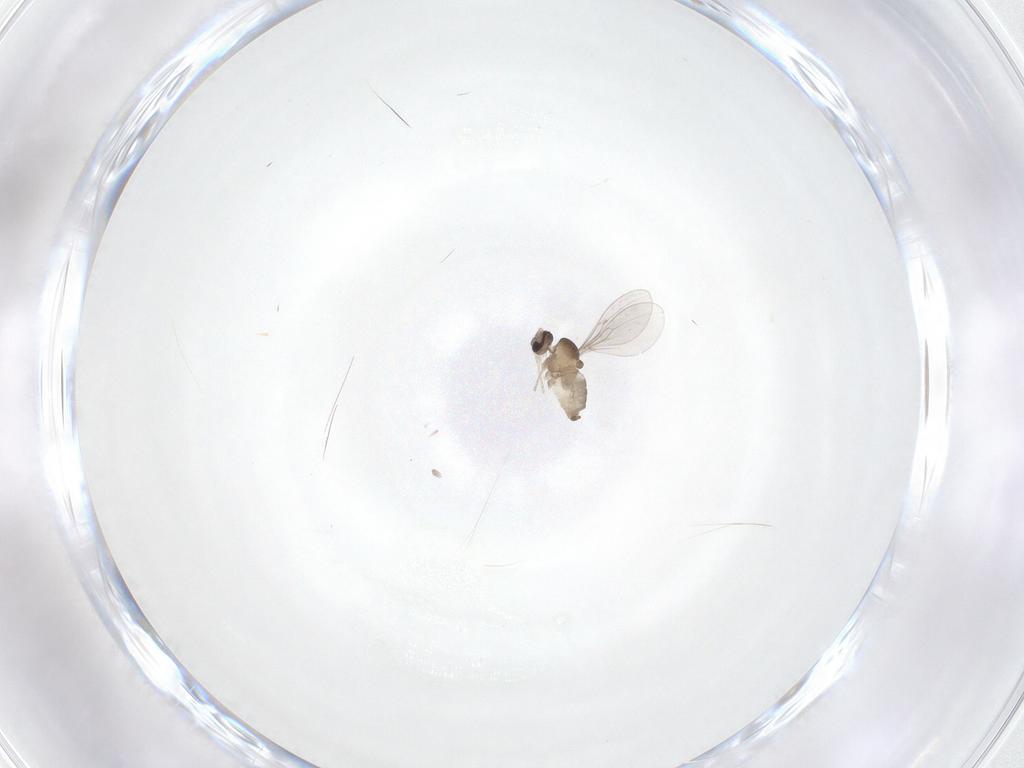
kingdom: Animalia
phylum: Arthropoda
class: Insecta
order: Diptera
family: Cecidomyiidae
